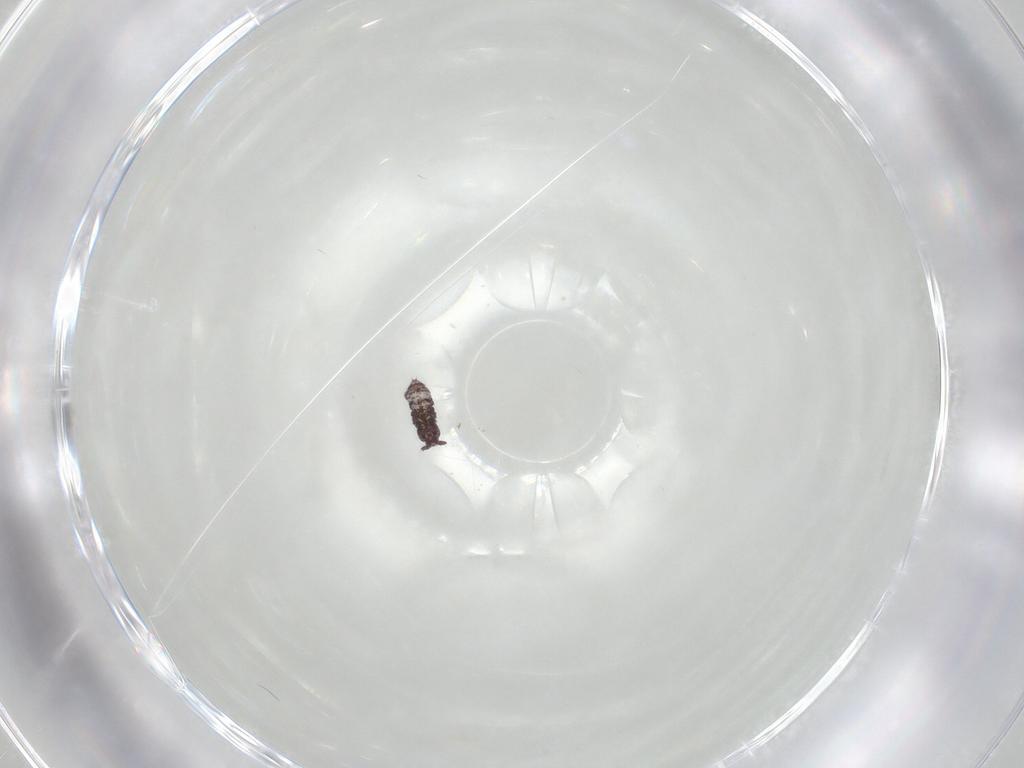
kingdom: Animalia
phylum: Arthropoda
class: Collembola
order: Poduromorpha
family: Hypogastruridae
